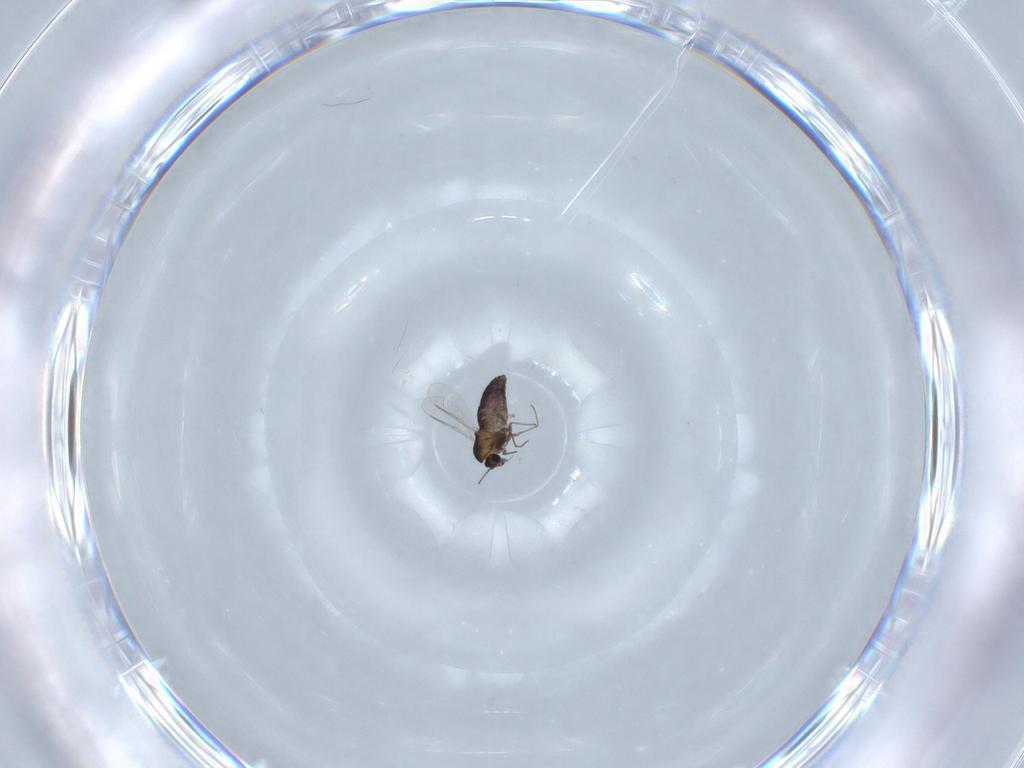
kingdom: Animalia
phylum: Arthropoda
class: Insecta
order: Diptera
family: Chironomidae
